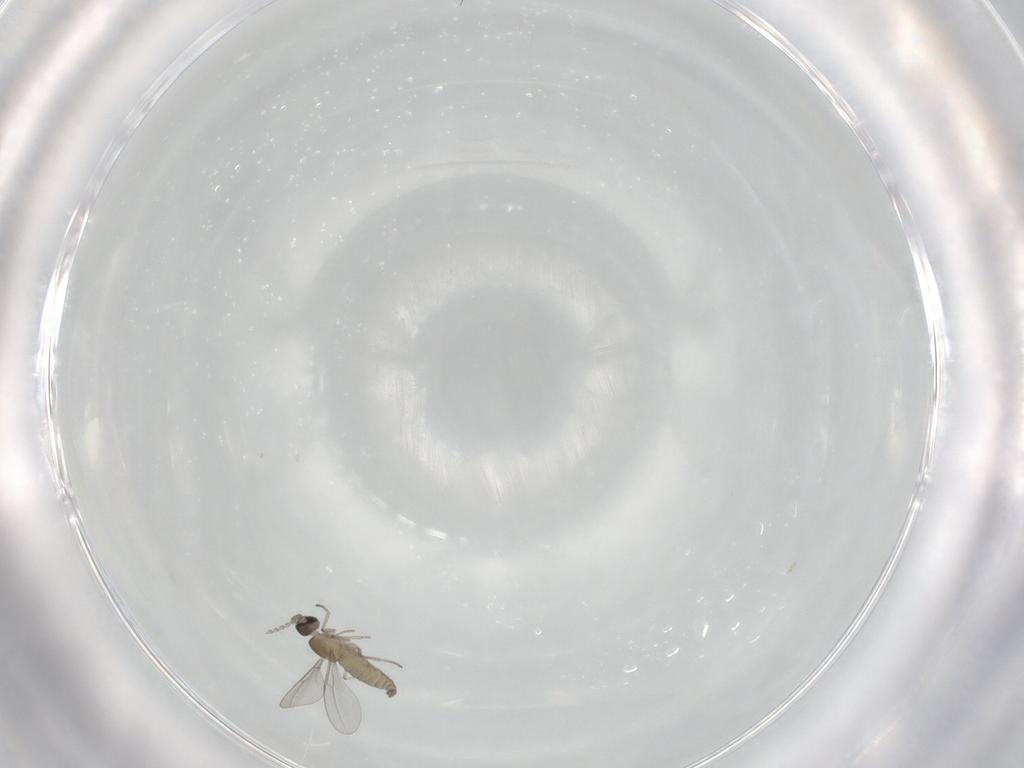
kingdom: Animalia
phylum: Arthropoda
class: Insecta
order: Diptera
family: Cecidomyiidae
